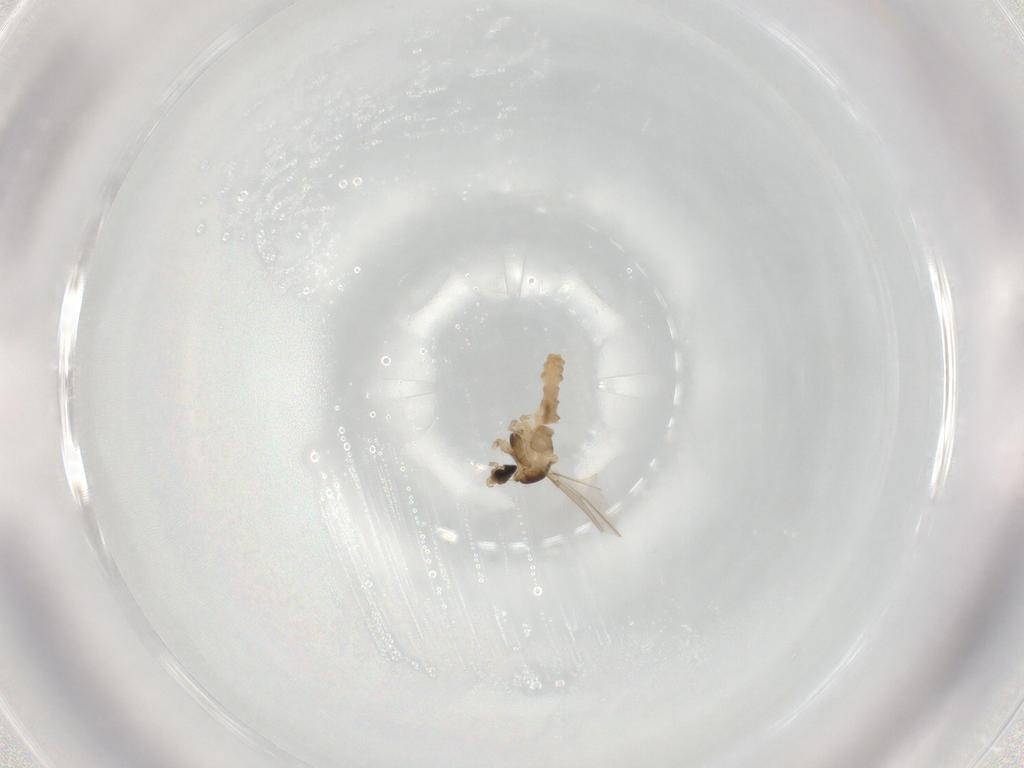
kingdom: Animalia
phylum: Arthropoda
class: Insecta
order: Diptera
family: Cecidomyiidae
